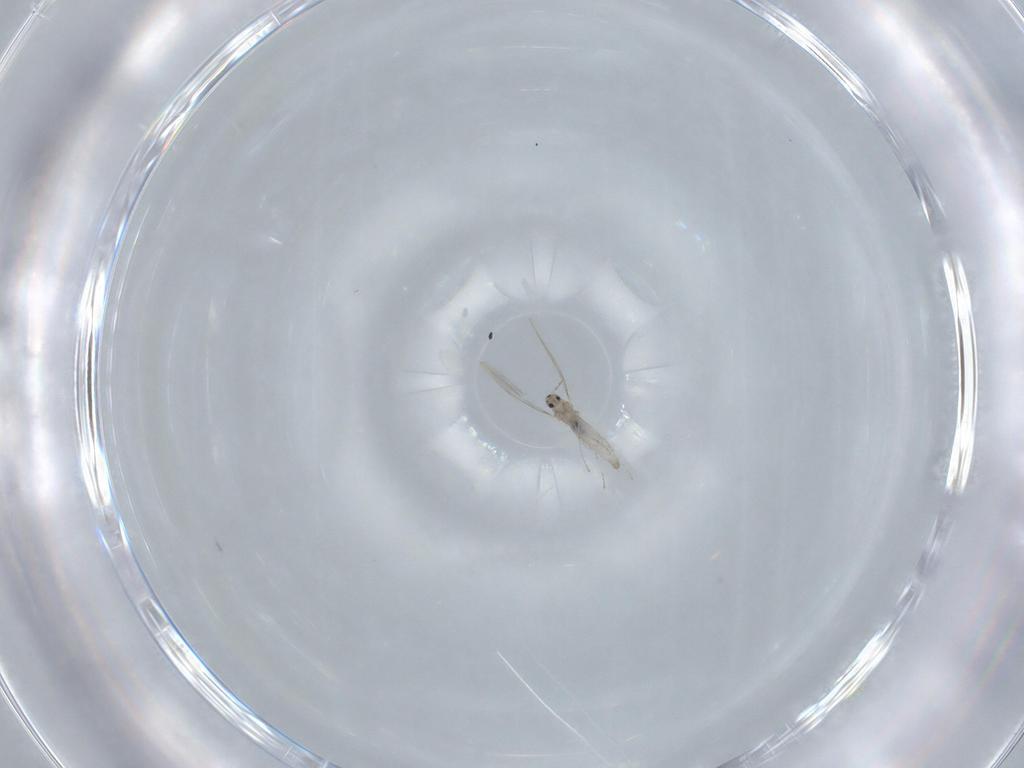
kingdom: Animalia
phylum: Arthropoda
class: Insecta
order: Diptera
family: Cecidomyiidae
